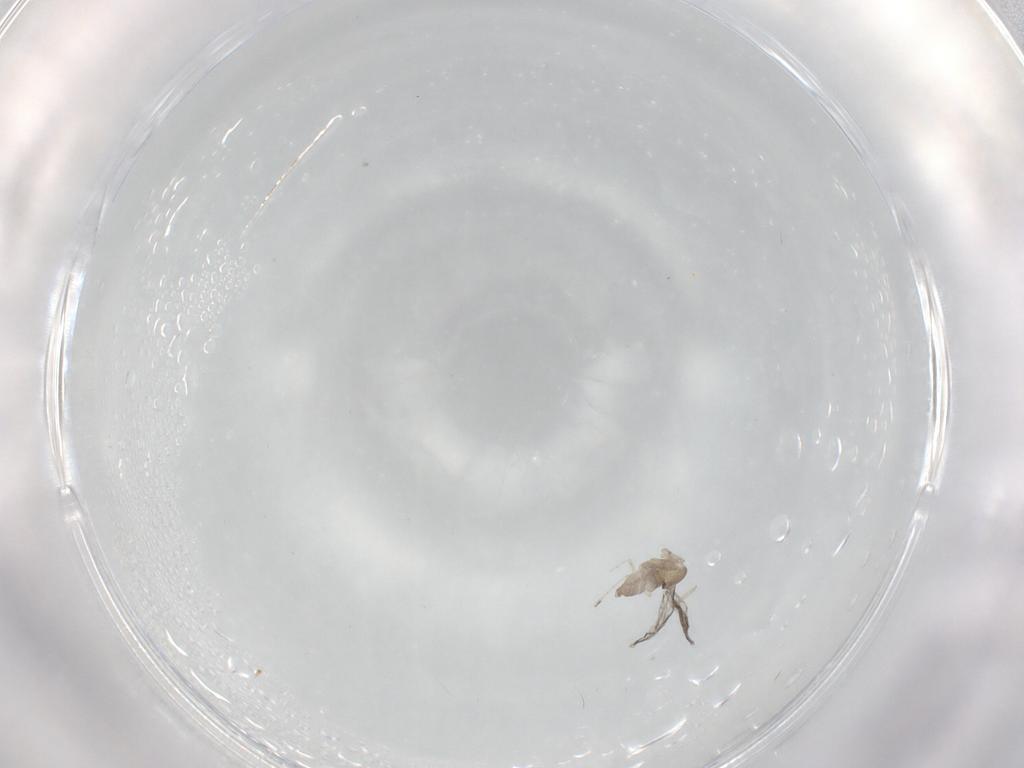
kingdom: Animalia
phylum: Arthropoda
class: Insecta
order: Diptera
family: Cecidomyiidae
